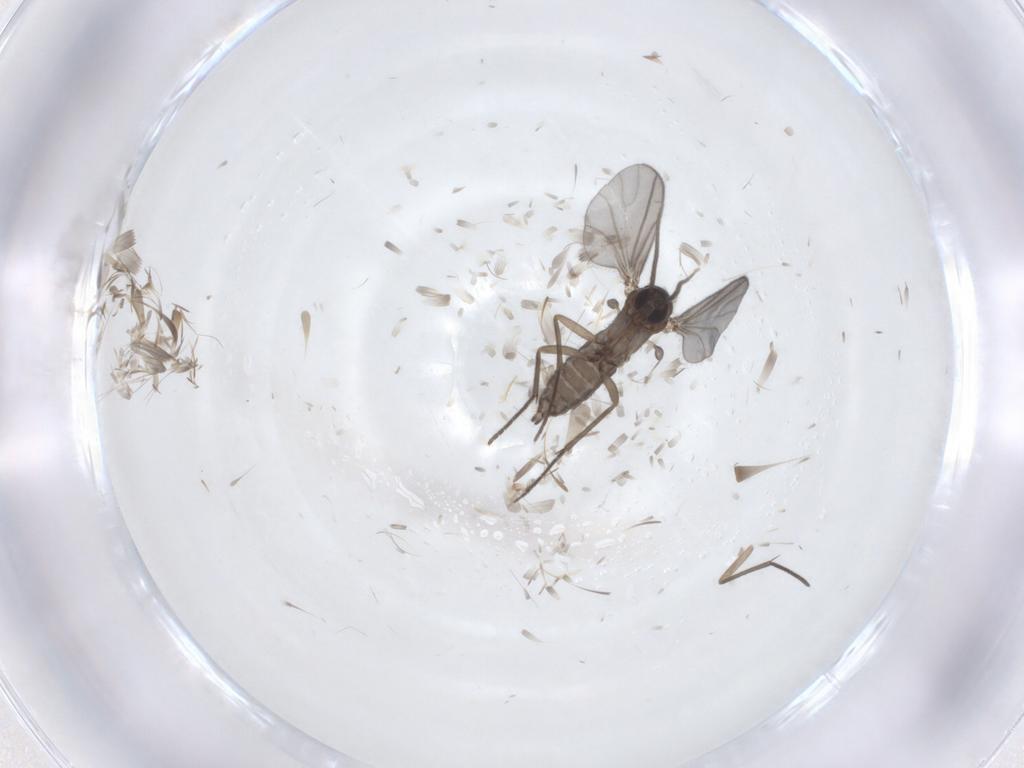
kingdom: Animalia
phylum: Arthropoda
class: Insecta
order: Diptera
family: Sciaridae
